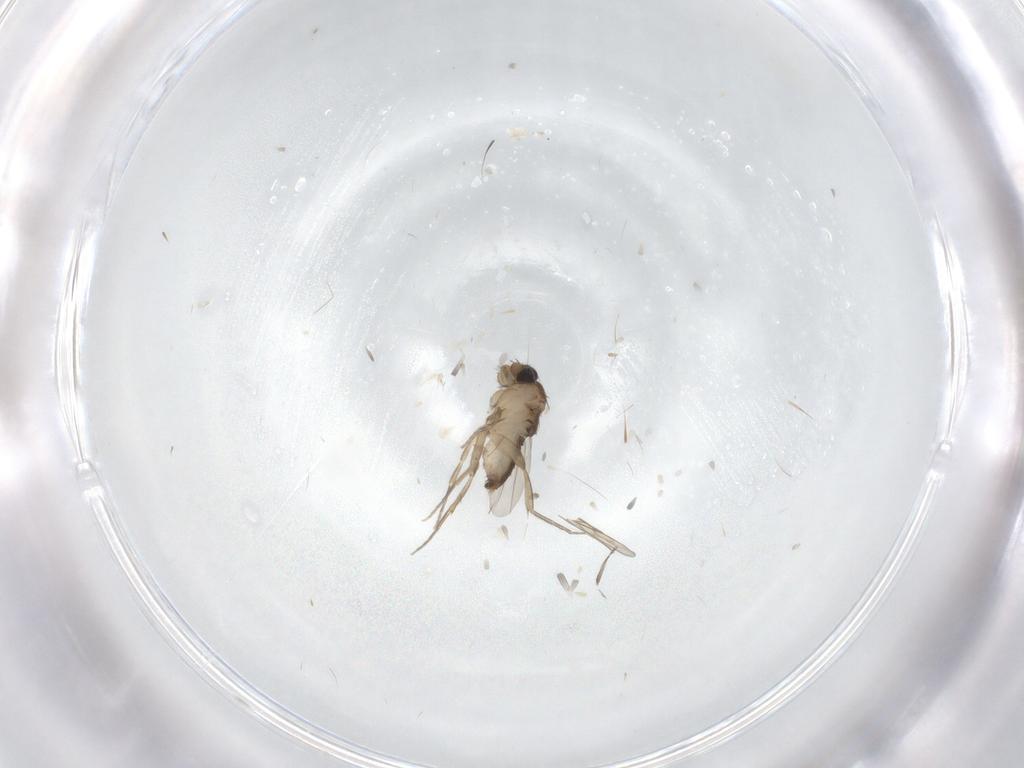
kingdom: Animalia
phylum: Arthropoda
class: Insecta
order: Diptera
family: Phoridae
